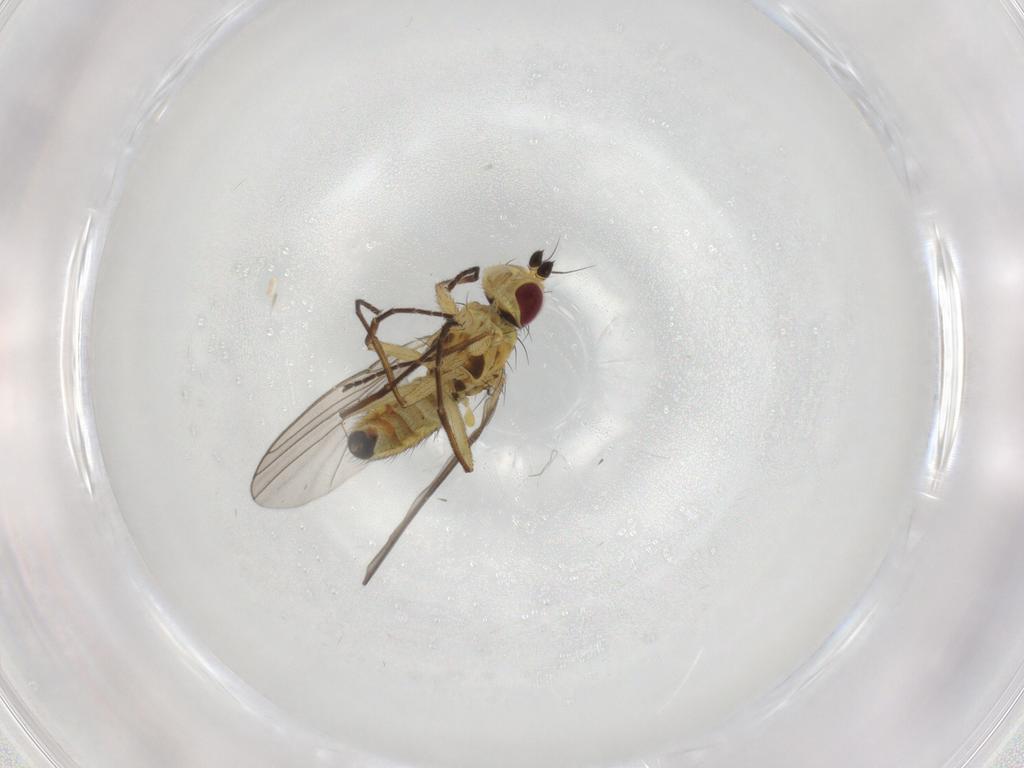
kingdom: Animalia
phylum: Arthropoda
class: Insecta
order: Diptera
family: Agromyzidae
